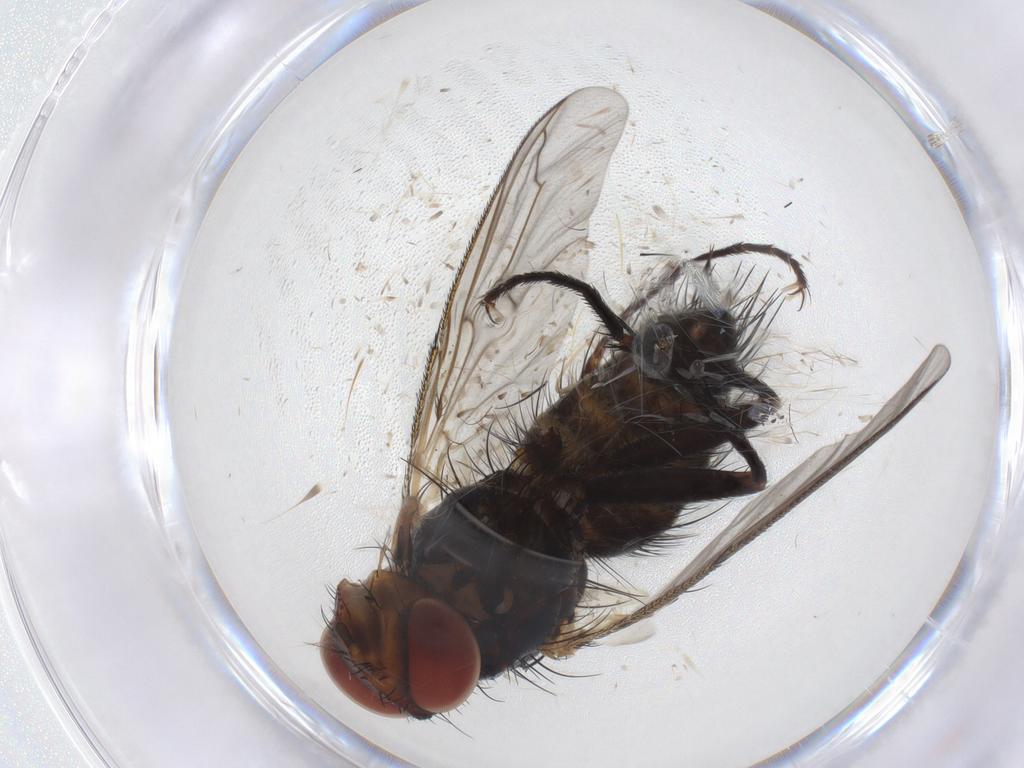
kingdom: Animalia
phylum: Arthropoda
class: Insecta
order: Diptera
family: Tachinidae
